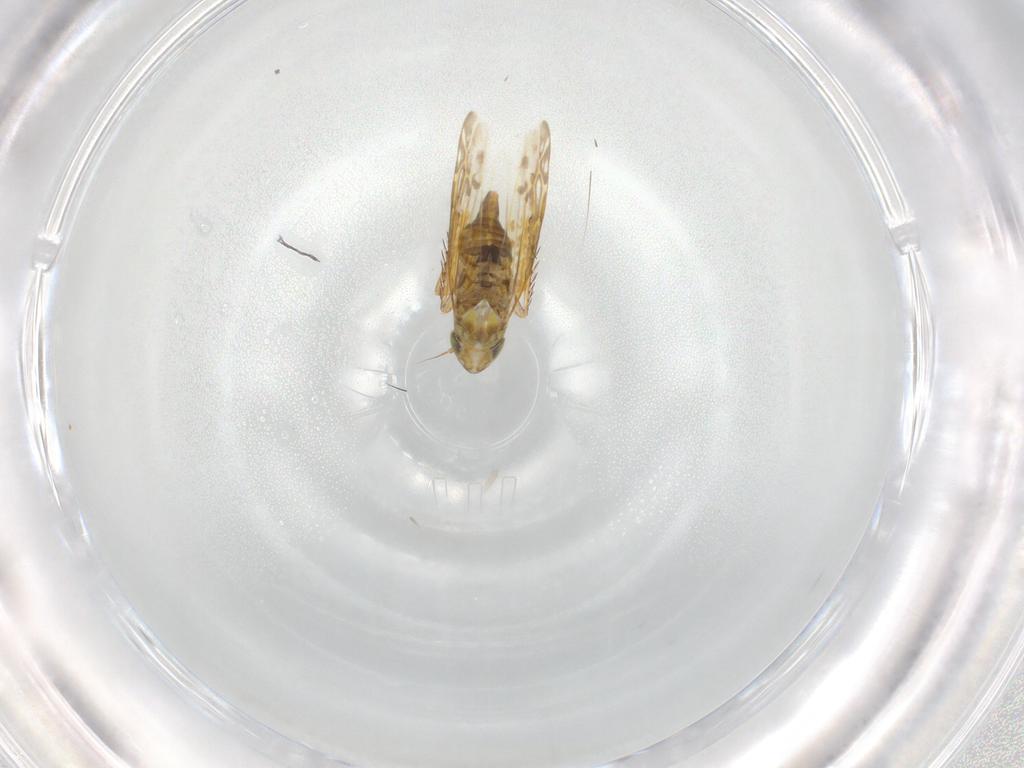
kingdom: Animalia
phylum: Arthropoda
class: Insecta
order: Hemiptera
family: Cicadellidae
